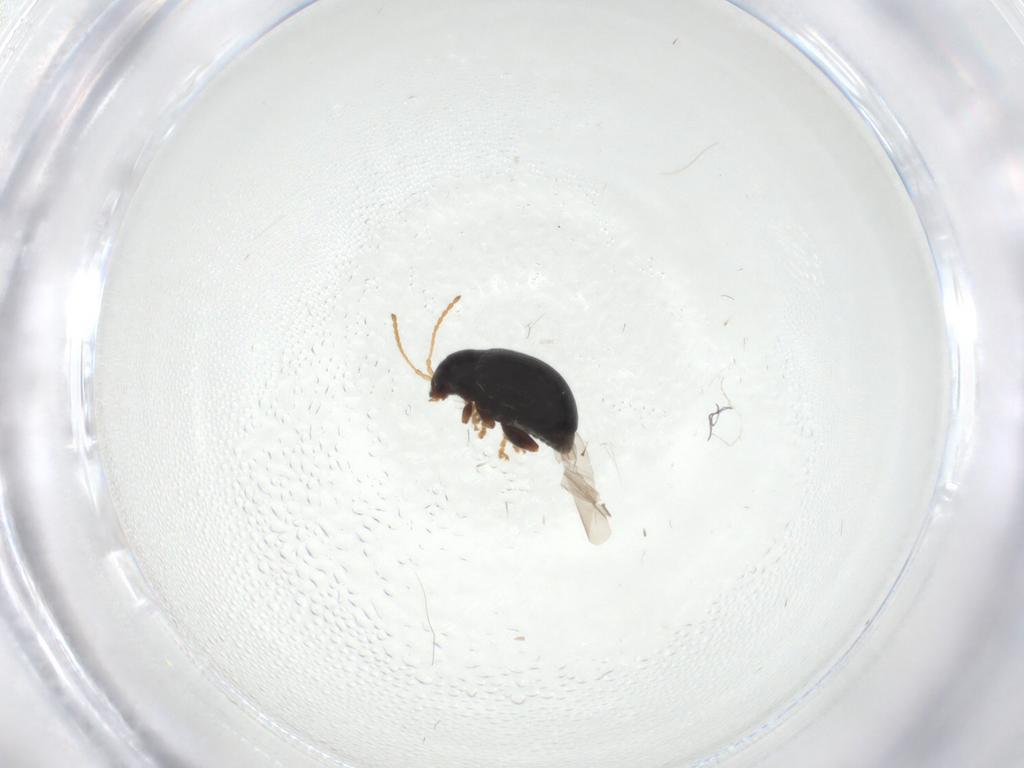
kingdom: Animalia
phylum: Arthropoda
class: Insecta
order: Coleoptera
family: Chrysomelidae
